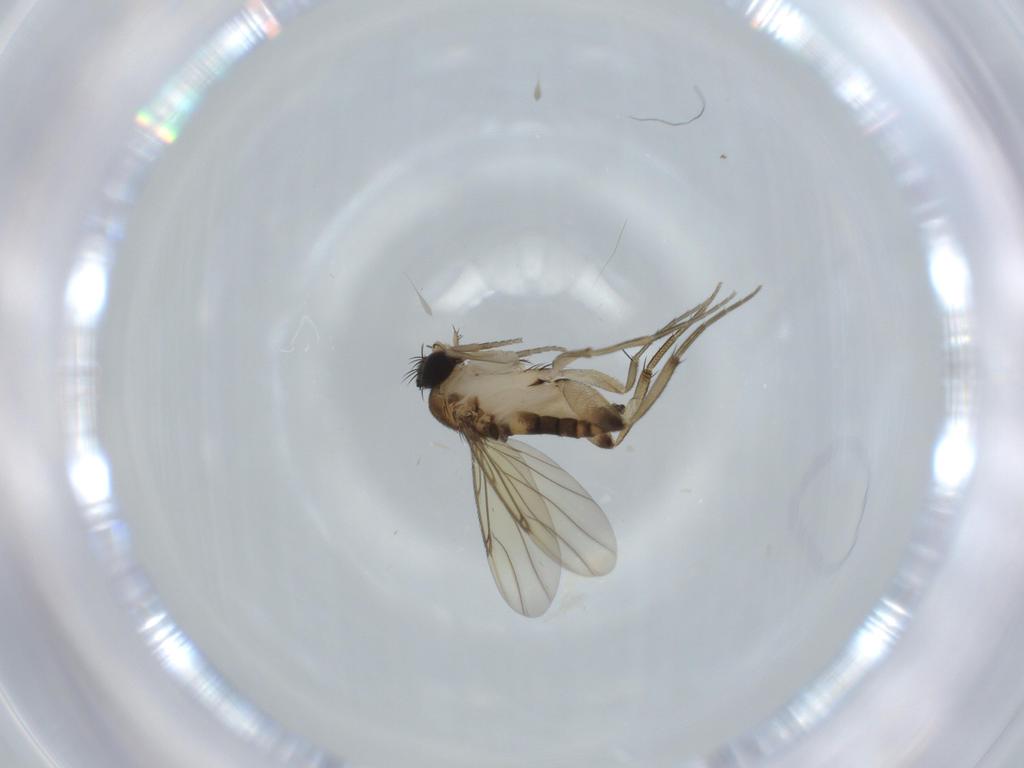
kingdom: Animalia
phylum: Arthropoda
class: Insecta
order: Diptera
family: Phoridae
